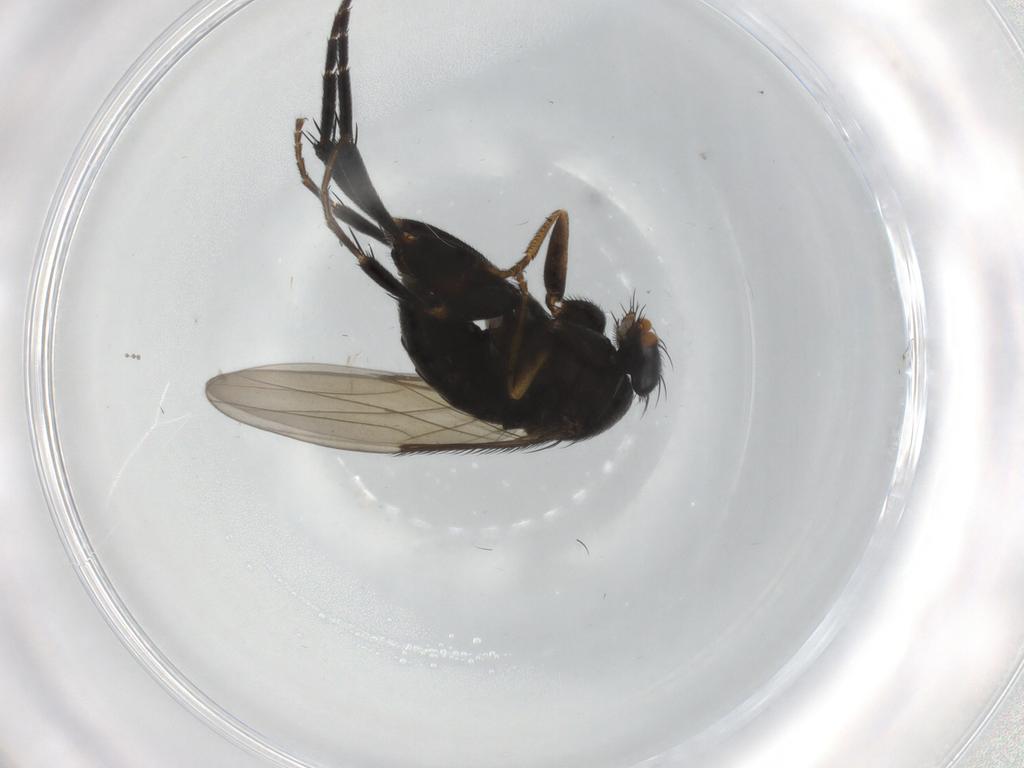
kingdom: Animalia
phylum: Arthropoda
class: Insecta
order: Diptera
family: Phoridae
